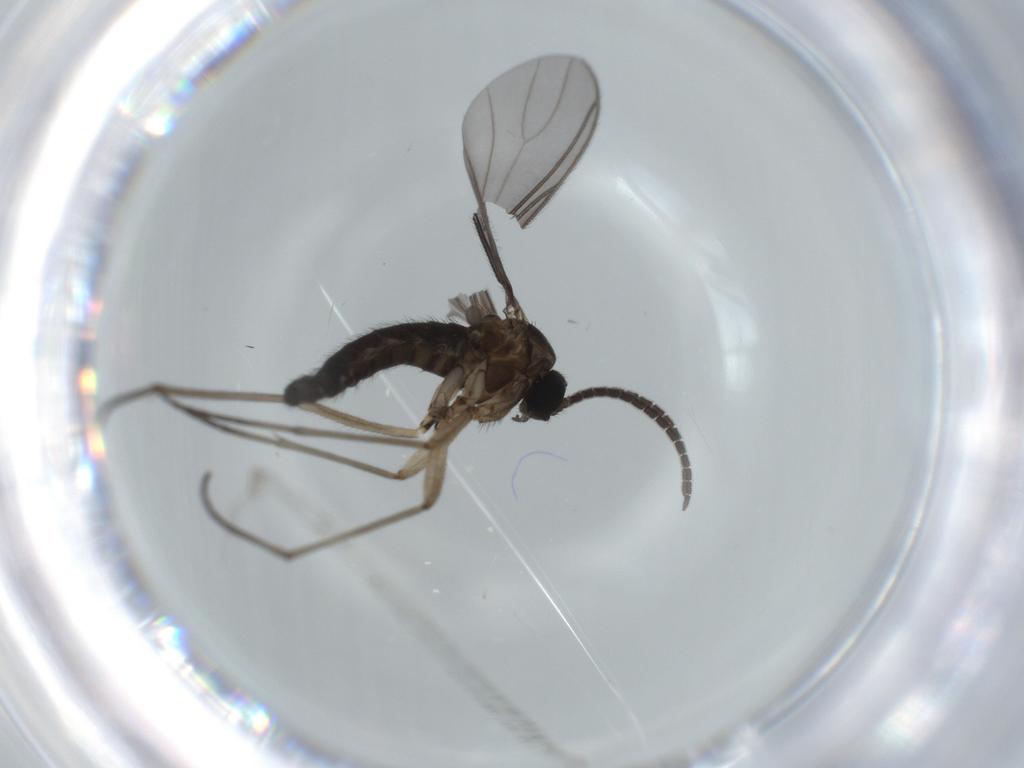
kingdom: Animalia
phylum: Arthropoda
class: Insecta
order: Diptera
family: Sciaridae
